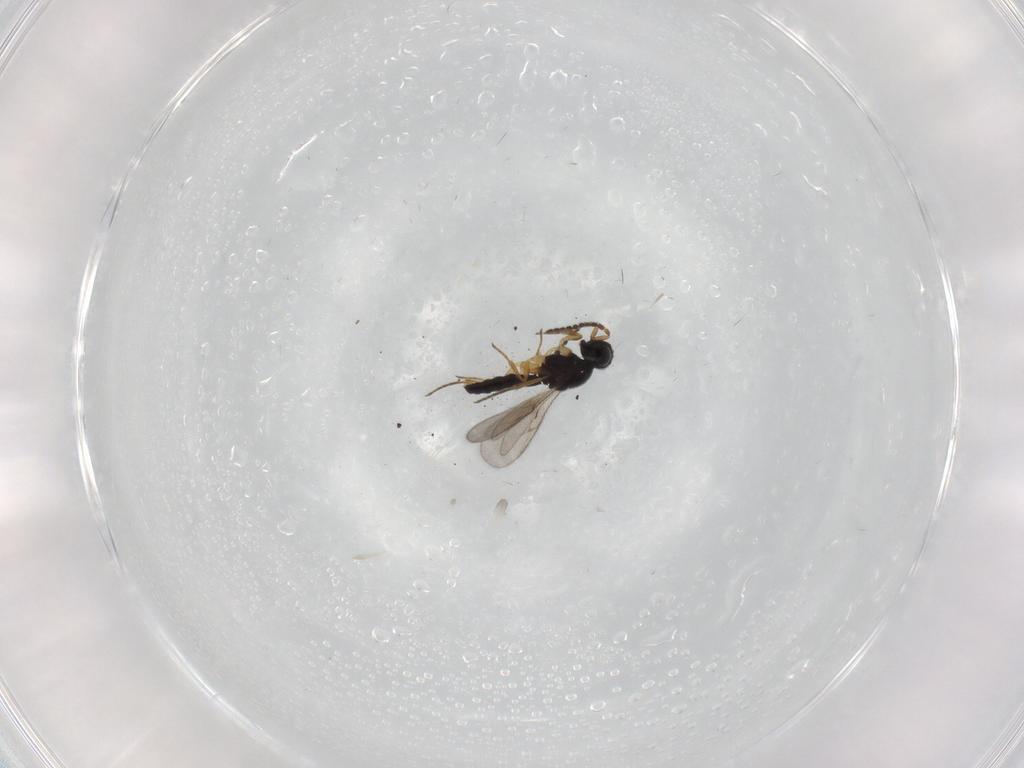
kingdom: Animalia
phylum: Arthropoda
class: Insecta
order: Hymenoptera
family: Scelionidae
